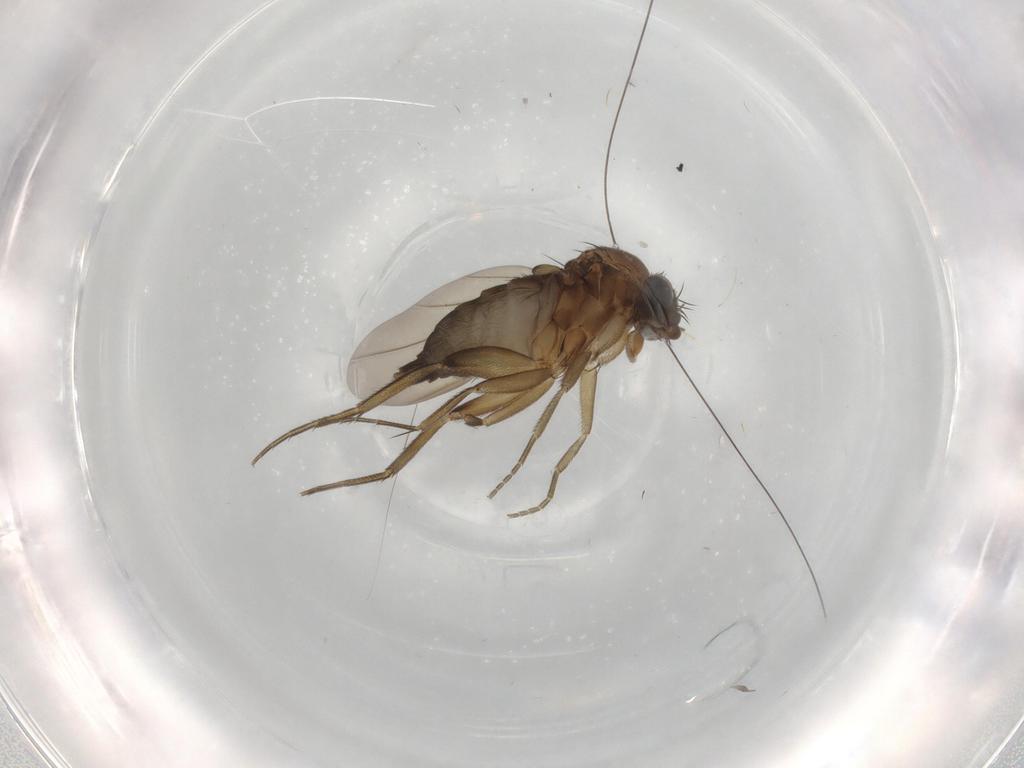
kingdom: Animalia
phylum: Arthropoda
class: Insecta
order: Diptera
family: Phoridae
